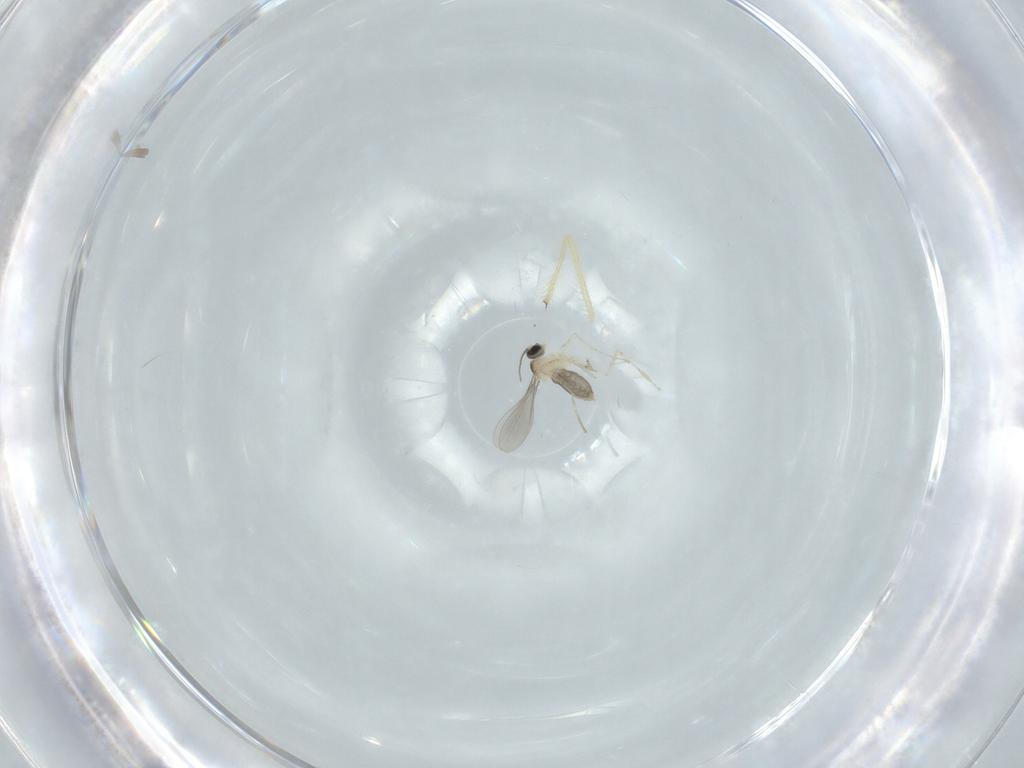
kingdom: Animalia
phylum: Arthropoda
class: Insecta
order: Diptera
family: Cecidomyiidae
